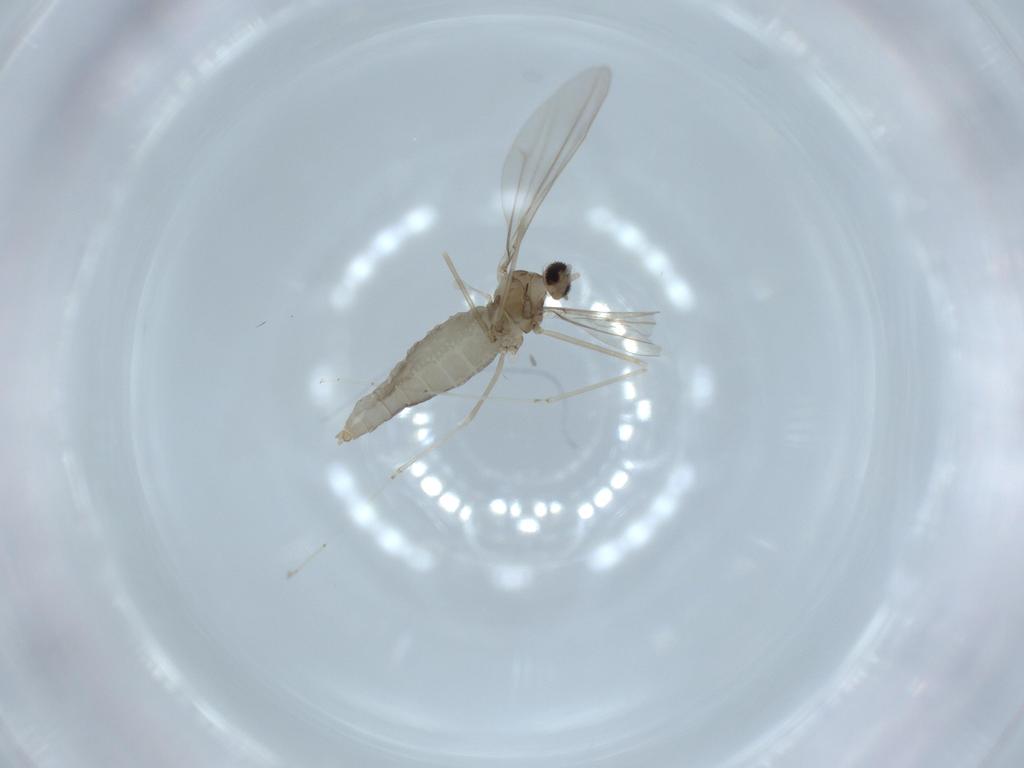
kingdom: Animalia
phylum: Arthropoda
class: Insecta
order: Diptera
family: Cecidomyiidae
